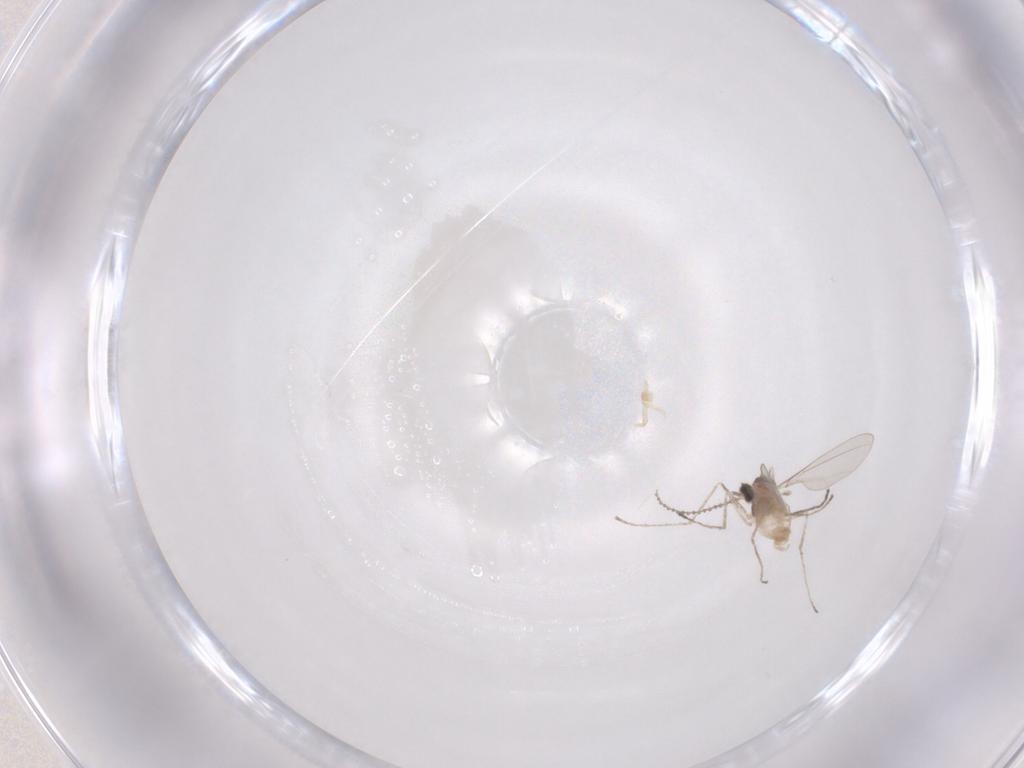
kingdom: Animalia
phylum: Arthropoda
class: Insecta
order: Diptera
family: Cecidomyiidae
